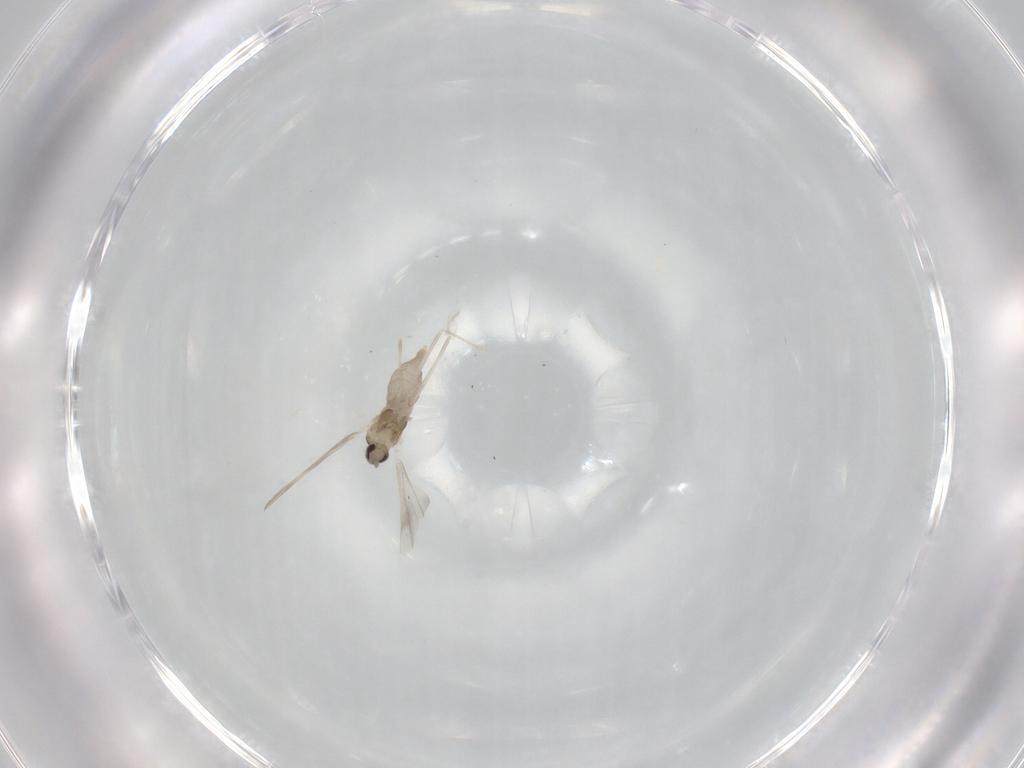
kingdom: Animalia
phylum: Arthropoda
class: Insecta
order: Diptera
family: Cecidomyiidae
